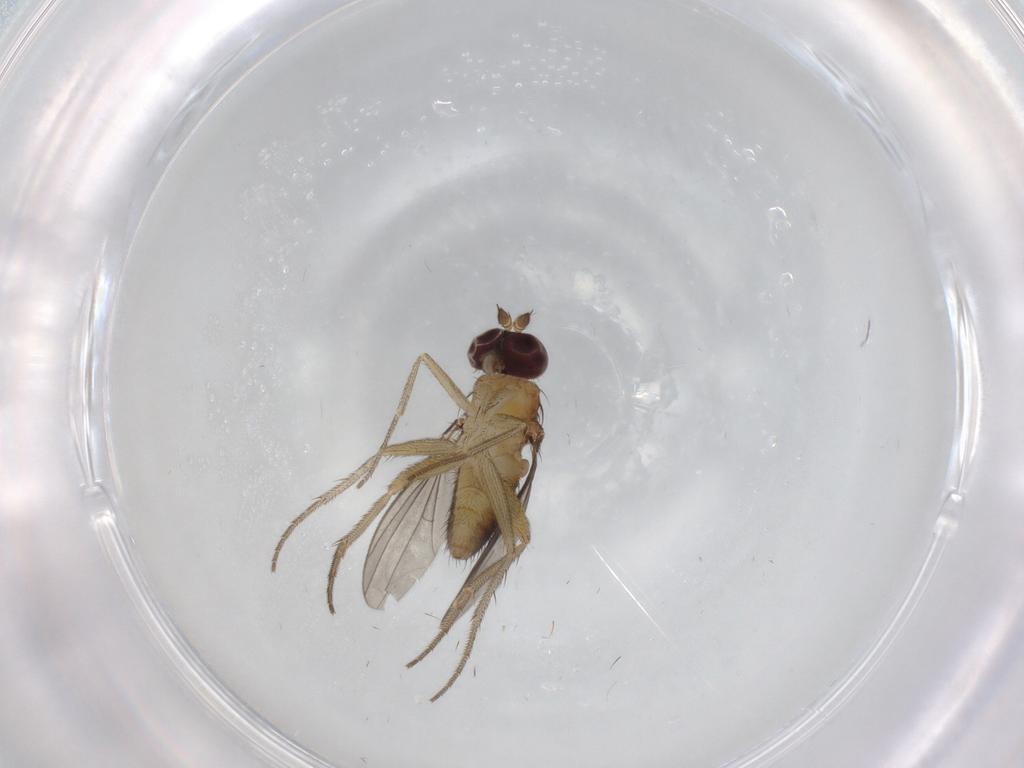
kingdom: Animalia
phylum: Arthropoda
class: Insecta
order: Diptera
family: Dolichopodidae
